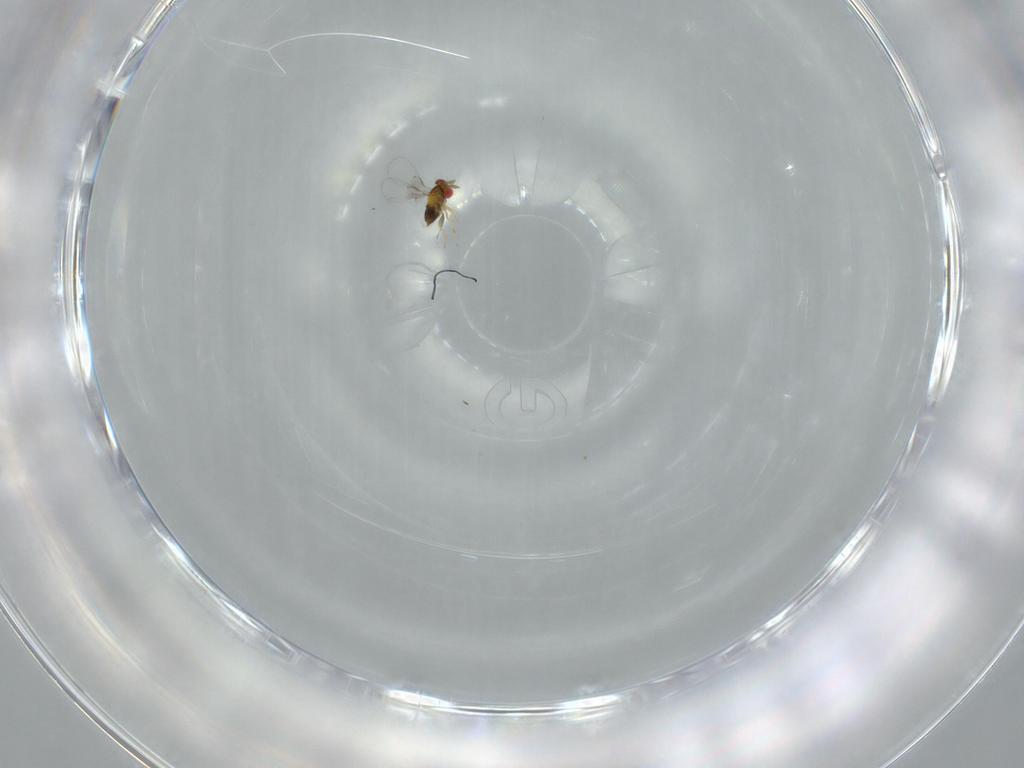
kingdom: Animalia
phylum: Arthropoda
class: Insecta
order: Hymenoptera
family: Trichogrammatidae
